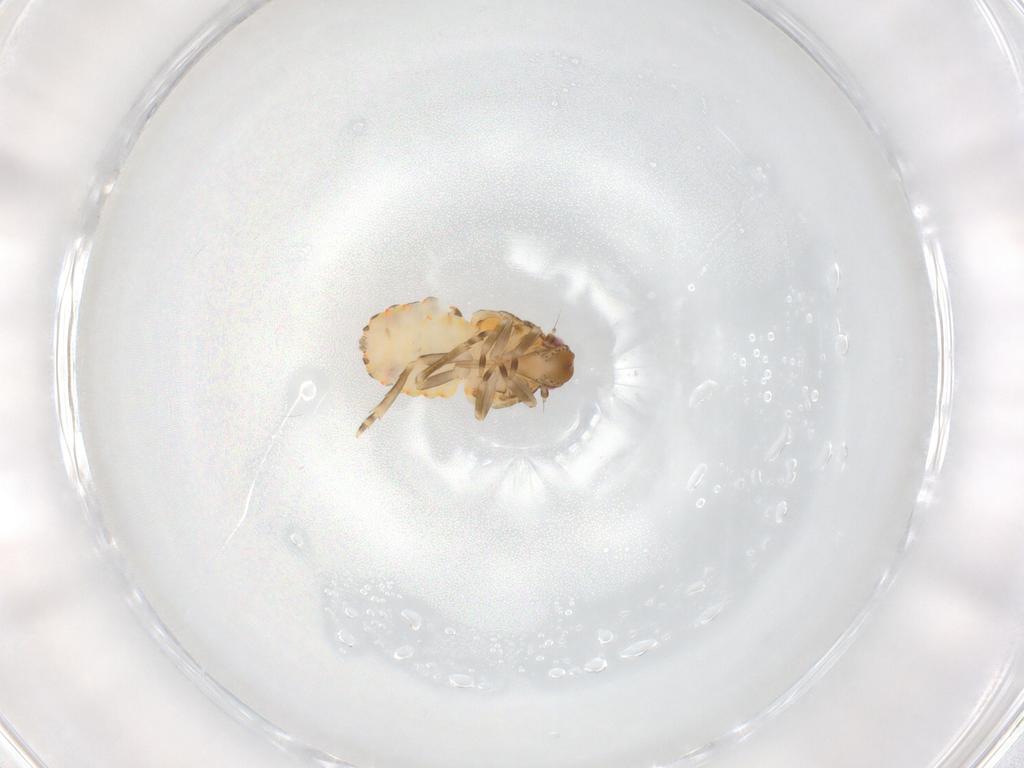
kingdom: Animalia
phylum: Arthropoda
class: Insecta
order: Hemiptera
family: Flatidae
